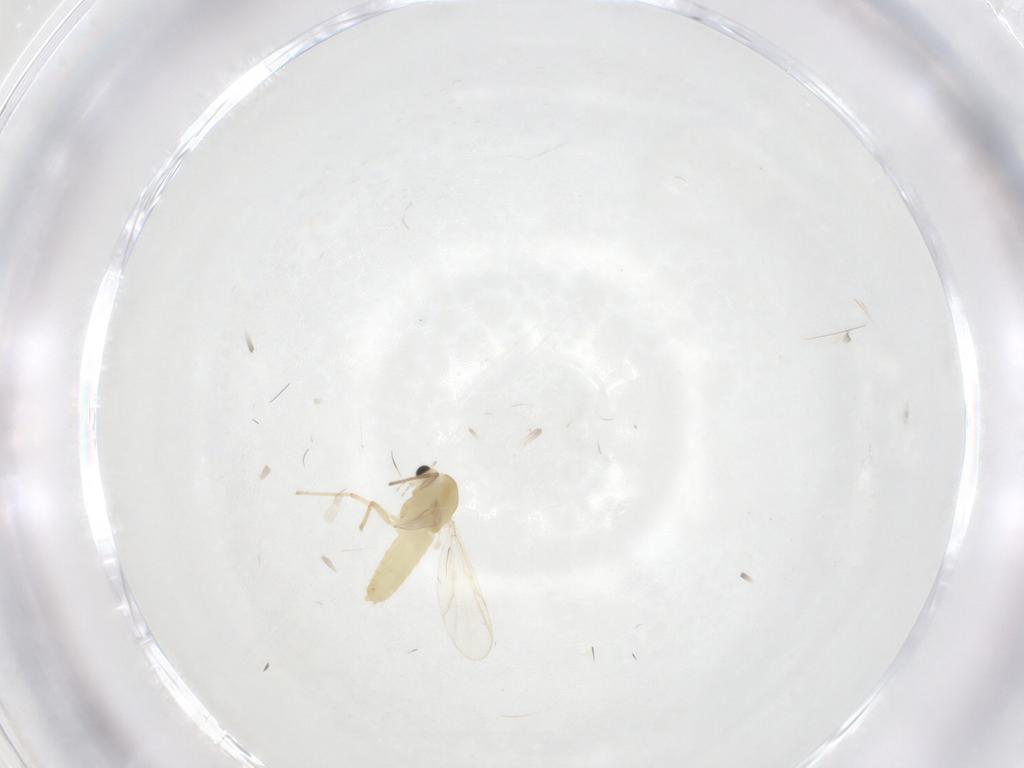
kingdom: Animalia
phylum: Arthropoda
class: Insecta
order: Diptera
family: Chironomidae
